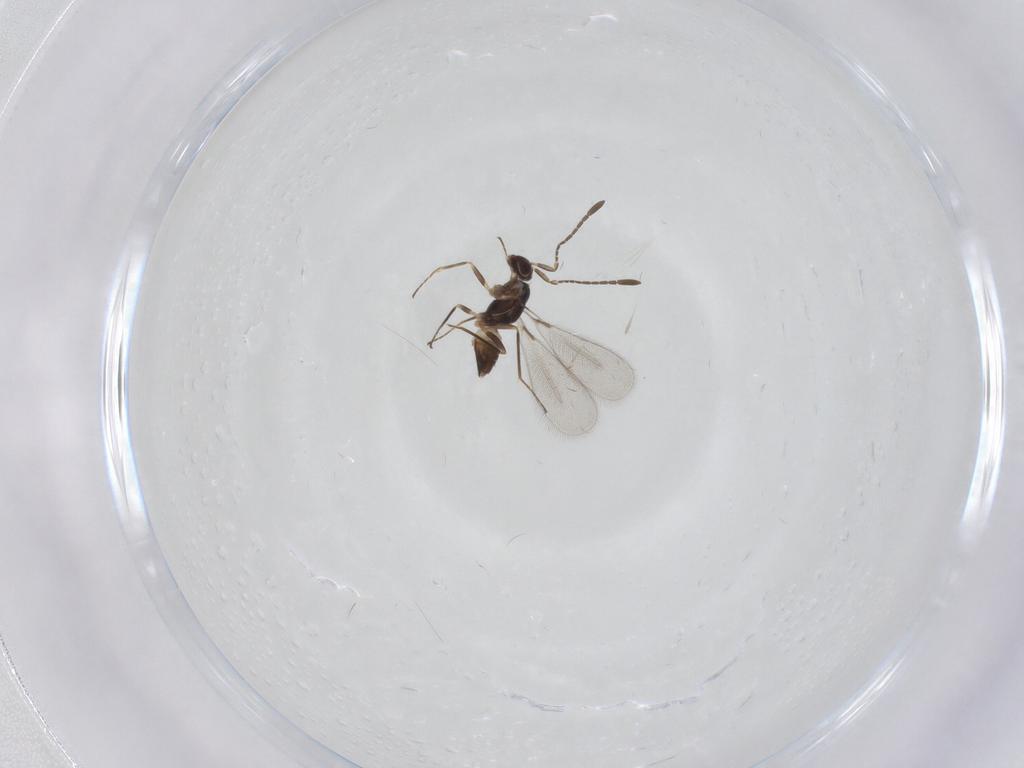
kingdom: Animalia
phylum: Arthropoda
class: Insecta
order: Hymenoptera
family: Mymaridae
